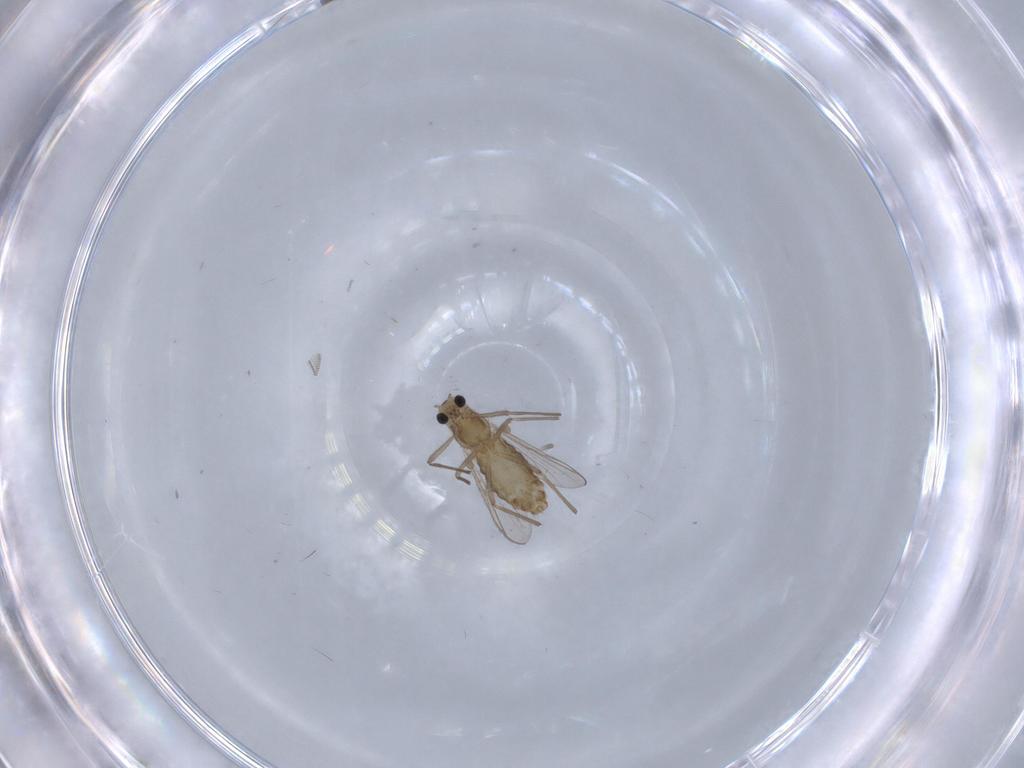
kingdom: Animalia
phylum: Arthropoda
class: Insecta
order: Diptera
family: Chironomidae
